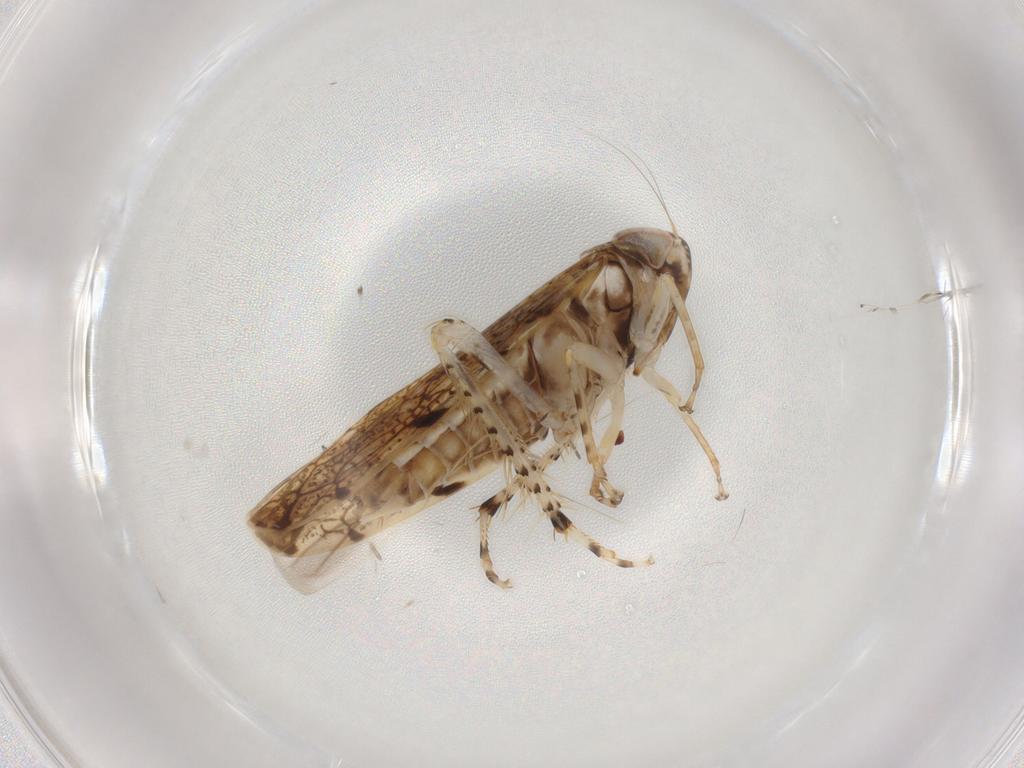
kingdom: Animalia
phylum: Arthropoda
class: Insecta
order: Hemiptera
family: Cicadellidae
